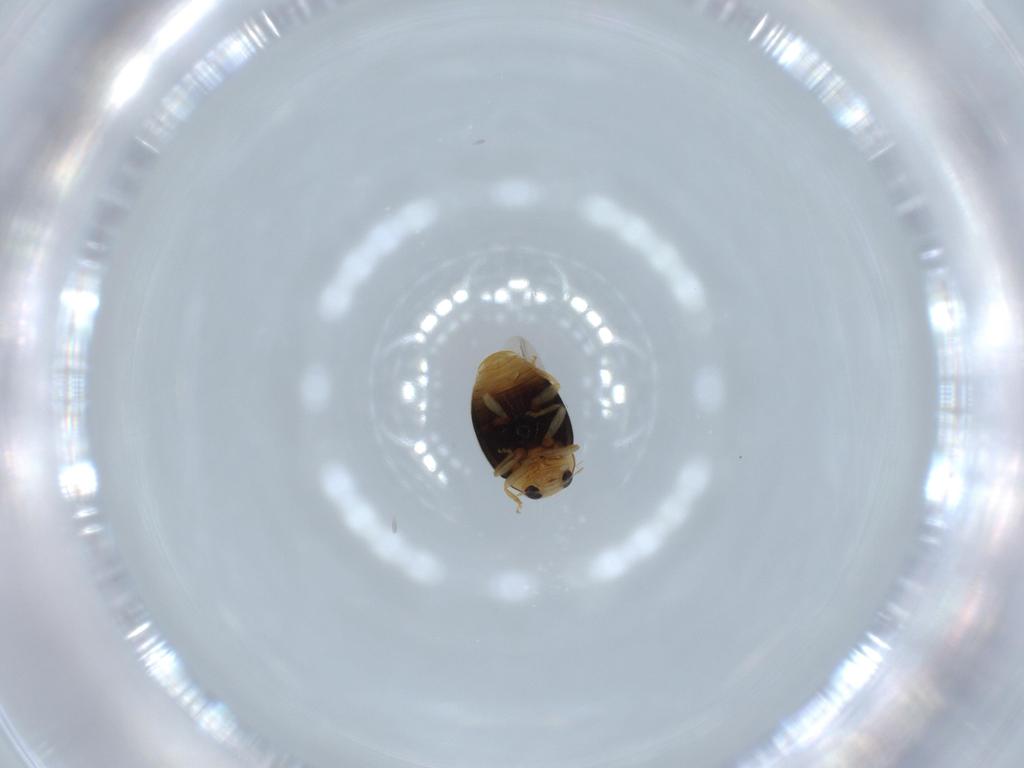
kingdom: Animalia
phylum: Arthropoda
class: Insecta
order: Coleoptera
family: Coccinellidae
